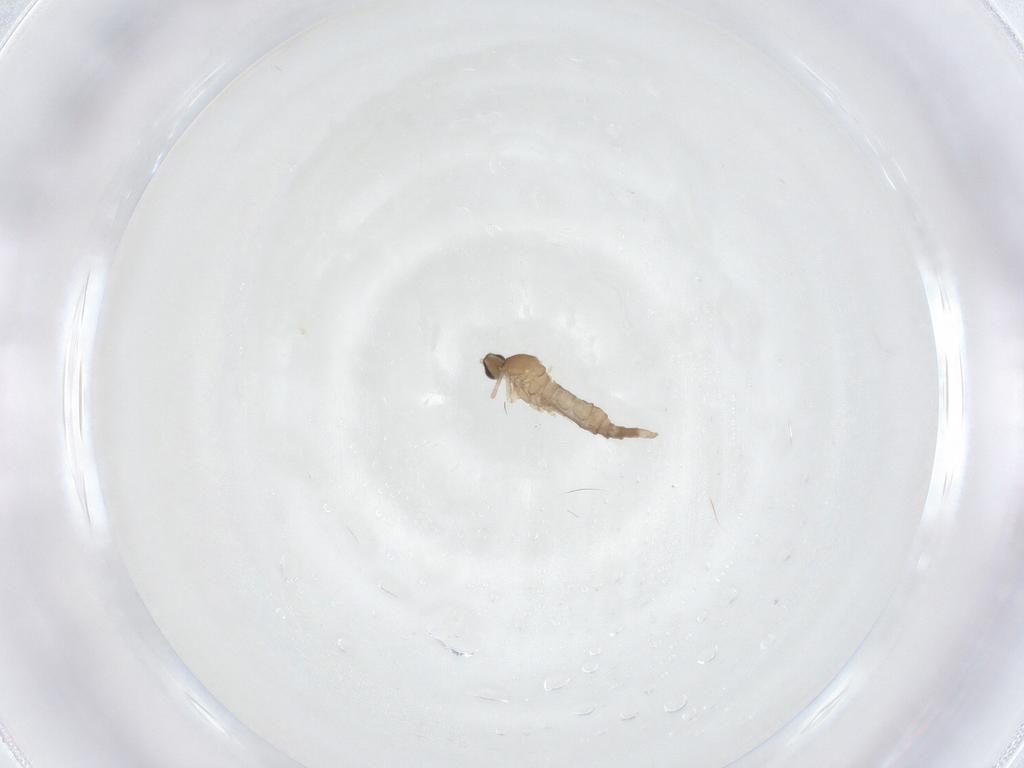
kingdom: Animalia
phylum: Arthropoda
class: Insecta
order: Diptera
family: Cecidomyiidae
